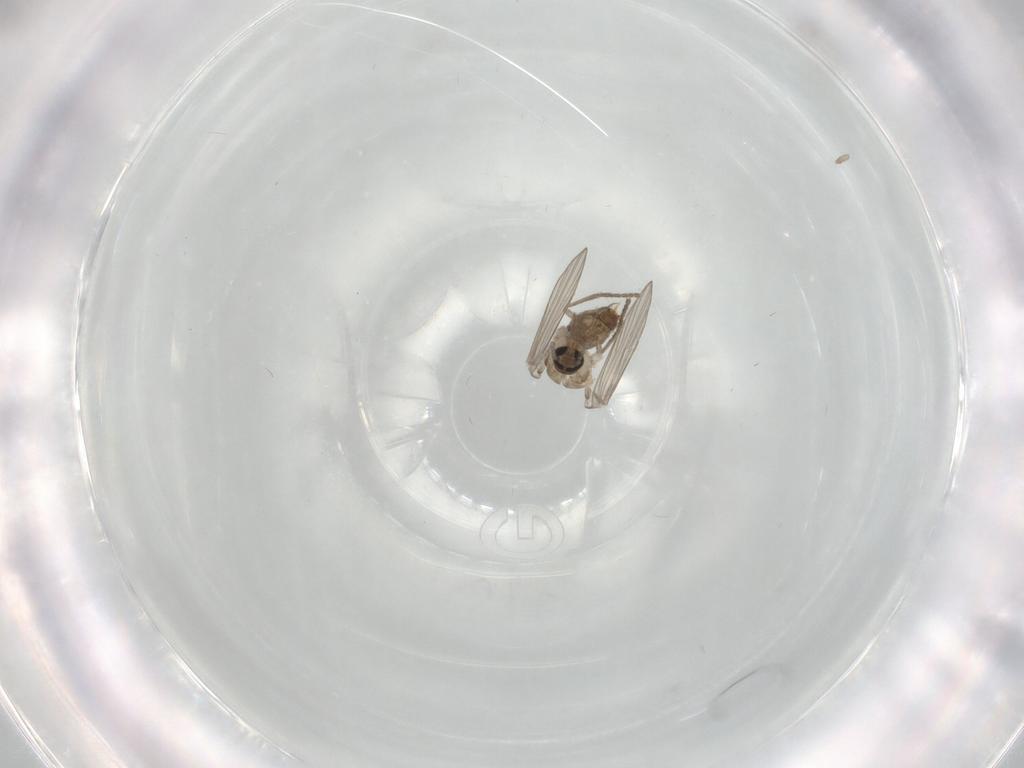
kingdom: Animalia
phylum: Arthropoda
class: Insecta
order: Diptera
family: Psychodidae
